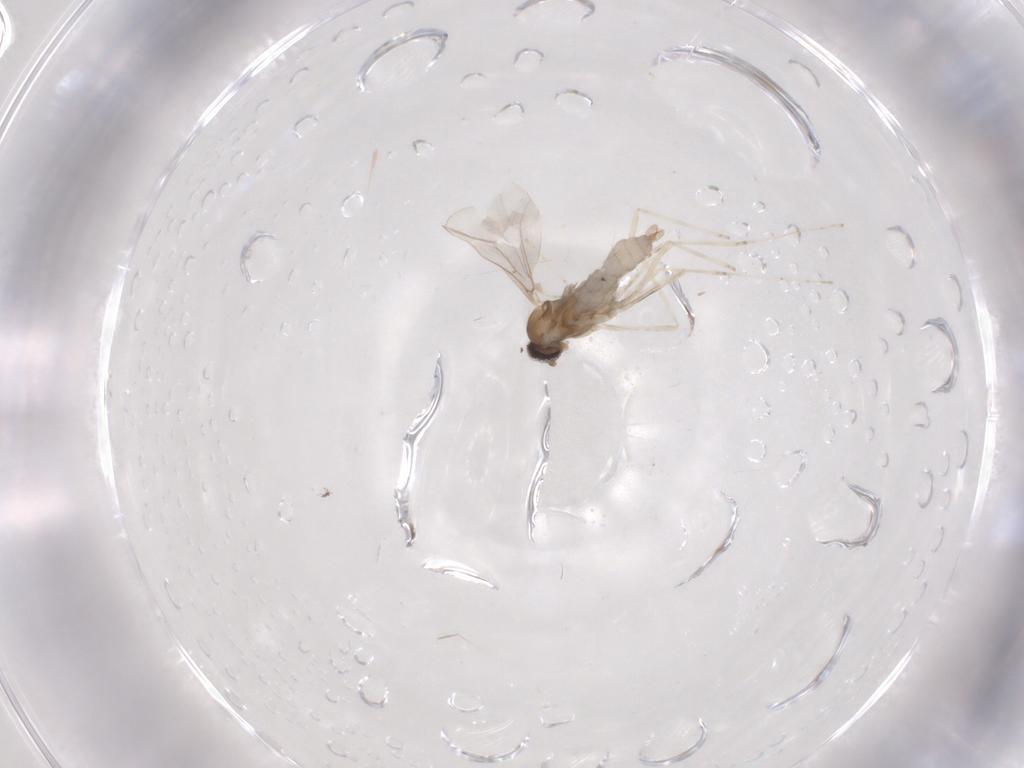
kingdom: Animalia
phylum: Arthropoda
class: Insecta
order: Diptera
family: Cecidomyiidae
